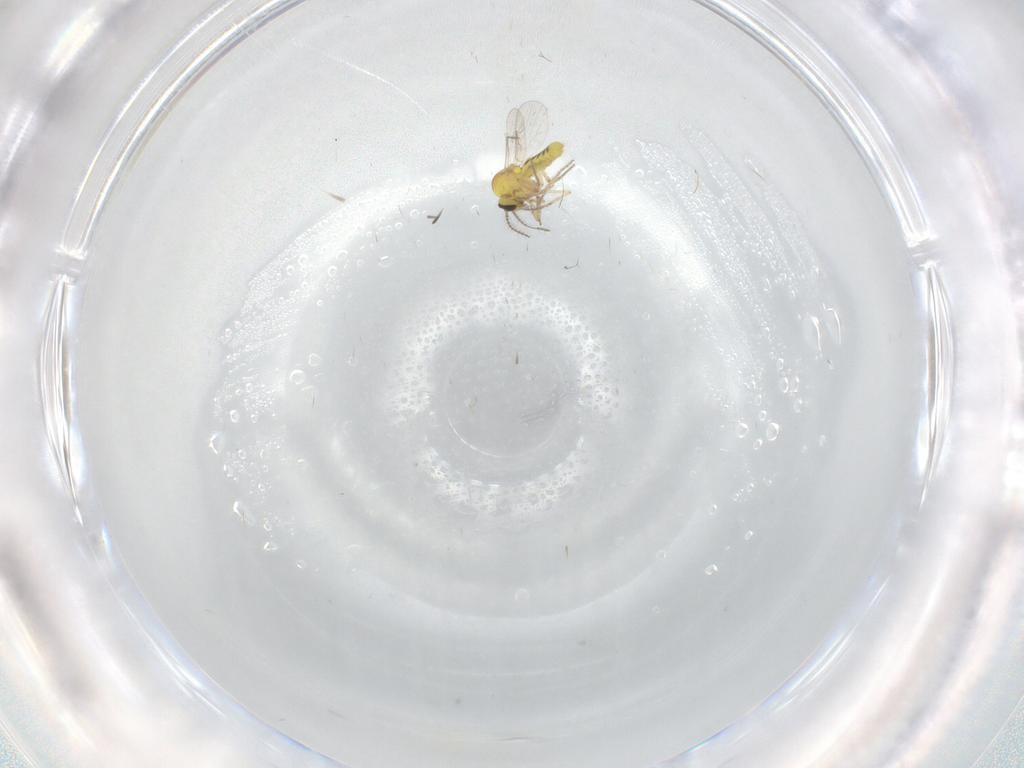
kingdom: Animalia
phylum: Arthropoda
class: Insecta
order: Diptera
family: Ceratopogonidae
